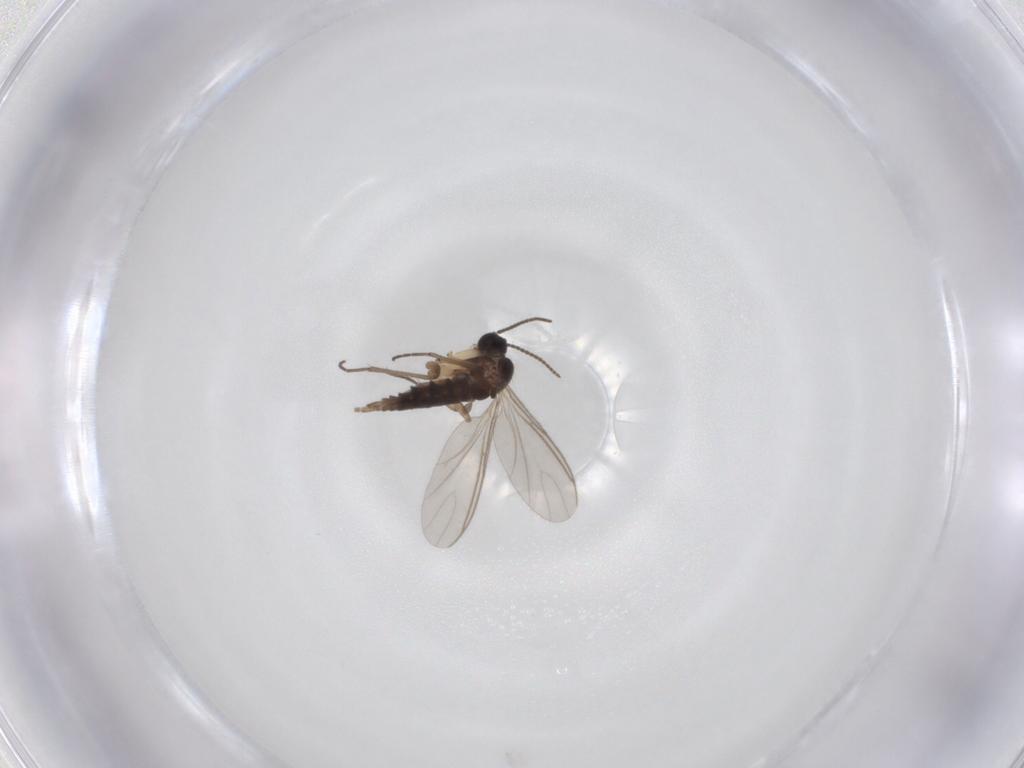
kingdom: Animalia
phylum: Arthropoda
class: Insecta
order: Diptera
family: Sciaridae
